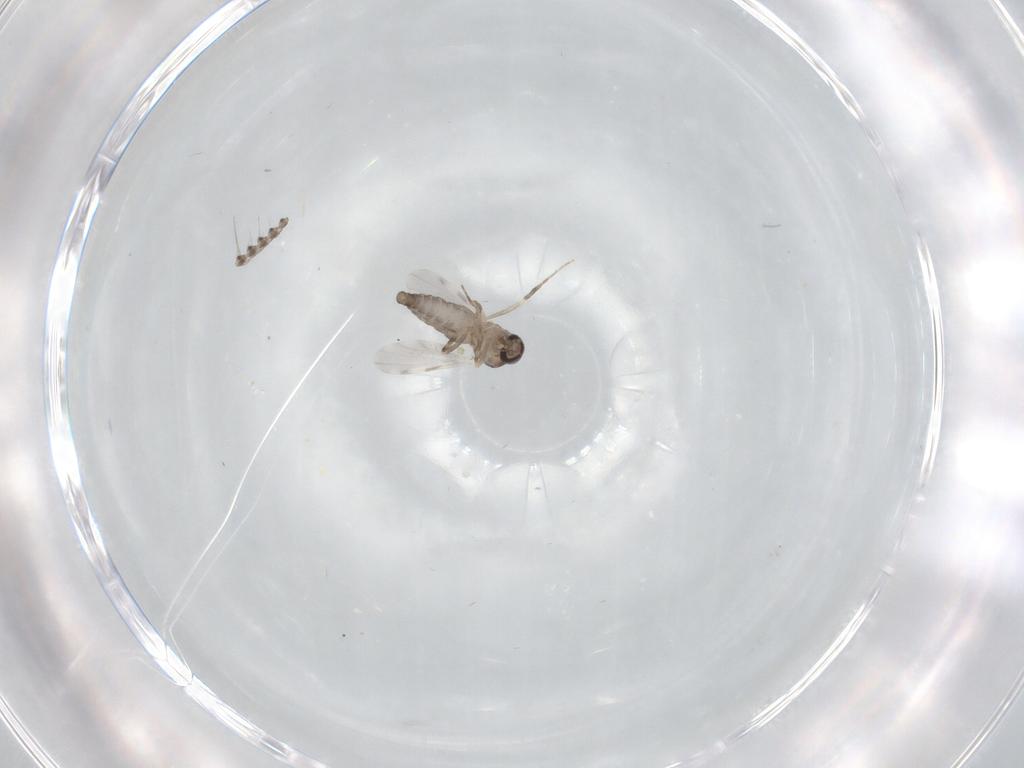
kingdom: Animalia
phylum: Arthropoda
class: Insecta
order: Diptera
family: Ceratopogonidae
